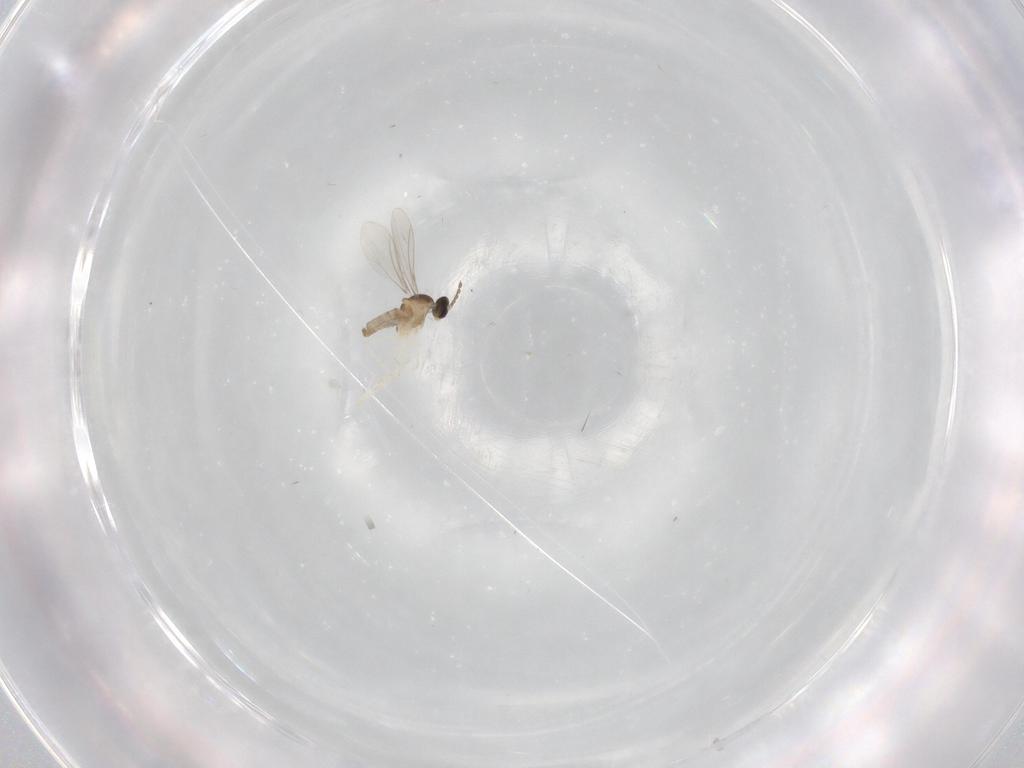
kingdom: Animalia
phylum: Arthropoda
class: Insecta
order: Diptera
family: Cecidomyiidae
